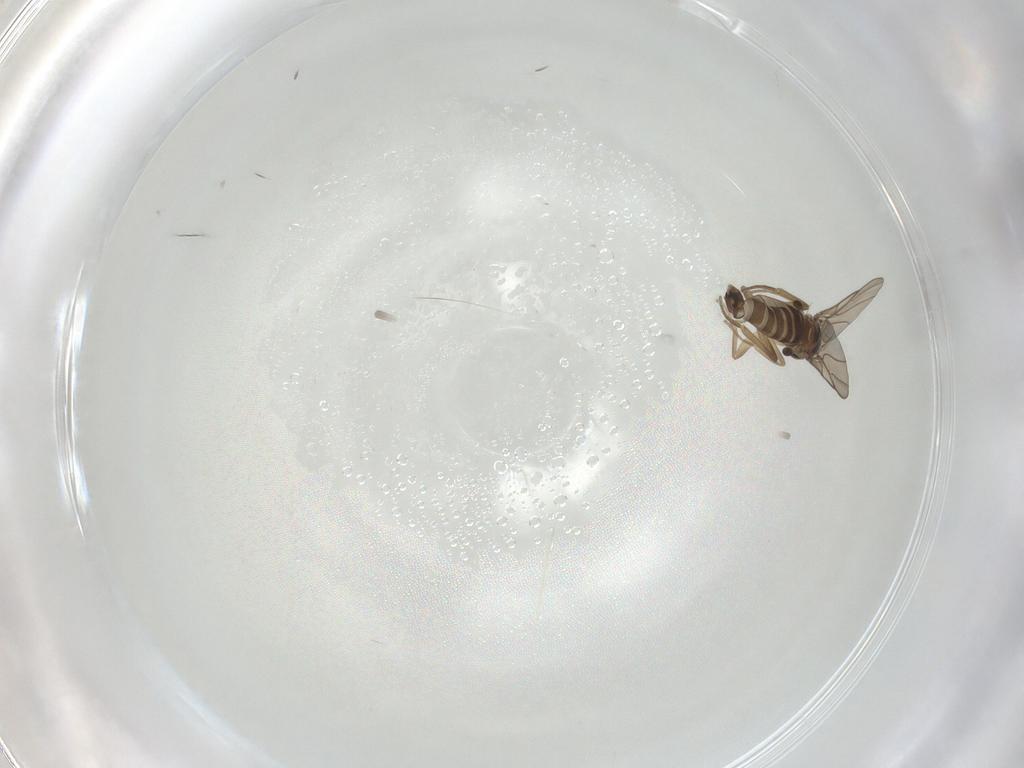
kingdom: Animalia
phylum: Arthropoda
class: Insecta
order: Diptera
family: Phoridae
